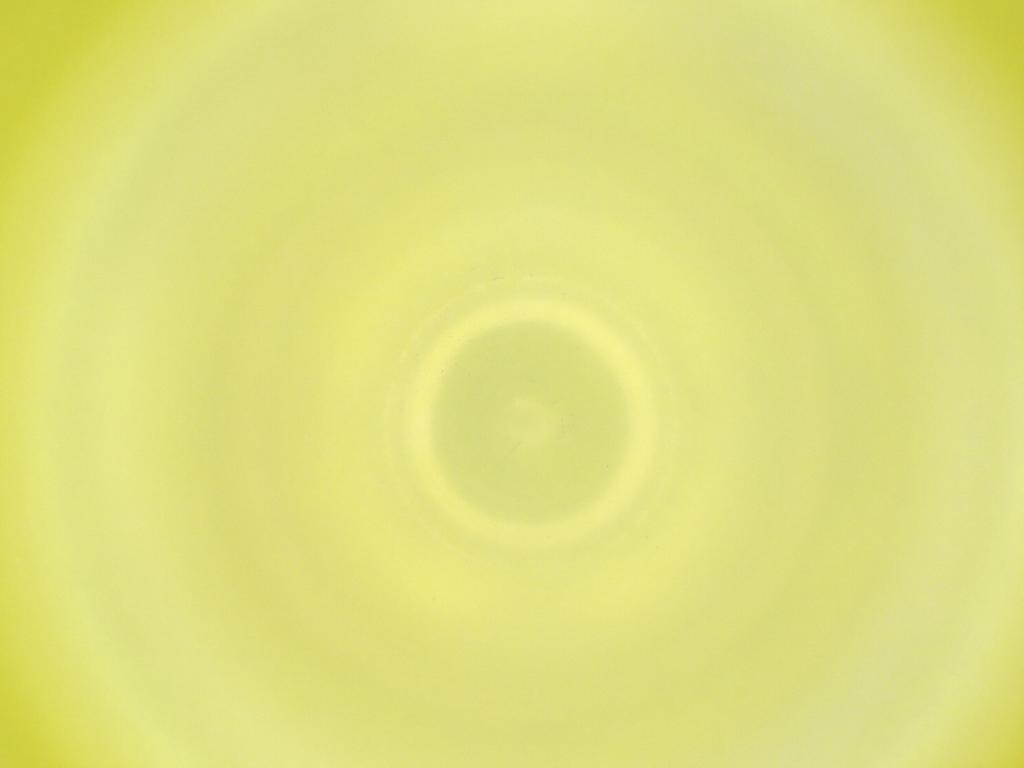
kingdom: Animalia
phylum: Arthropoda
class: Insecta
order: Diptera
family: Cecidomyiidae
